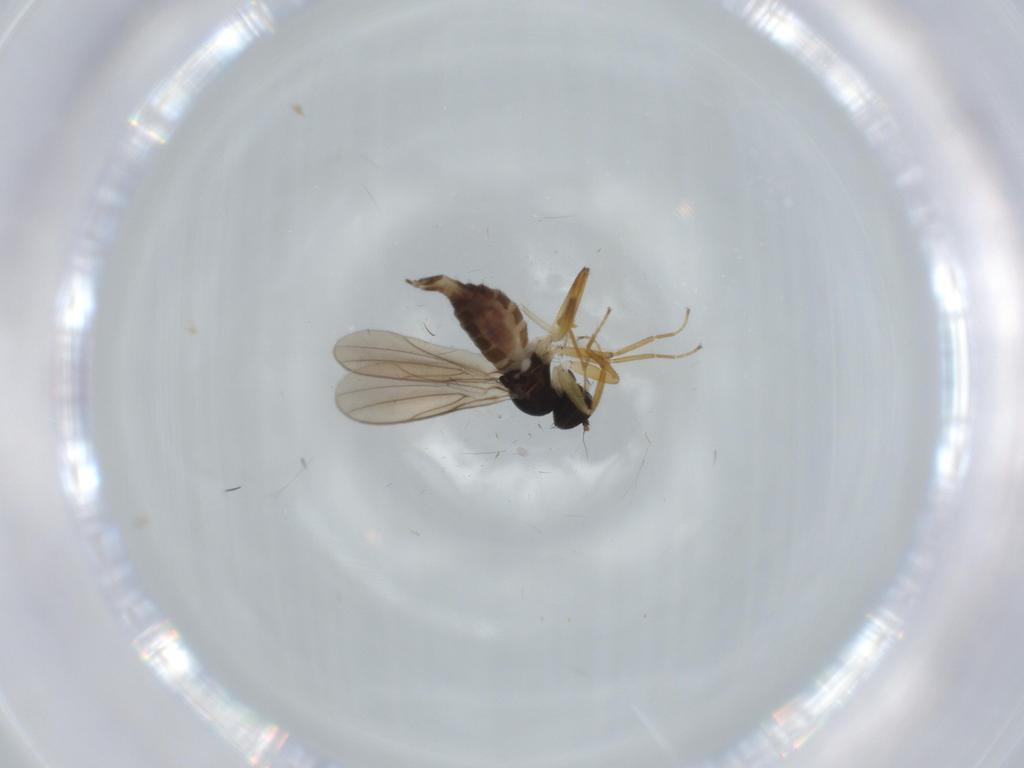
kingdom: Animalia
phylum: Arthropoda
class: Insecta
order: Diptera
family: Hybotidae
